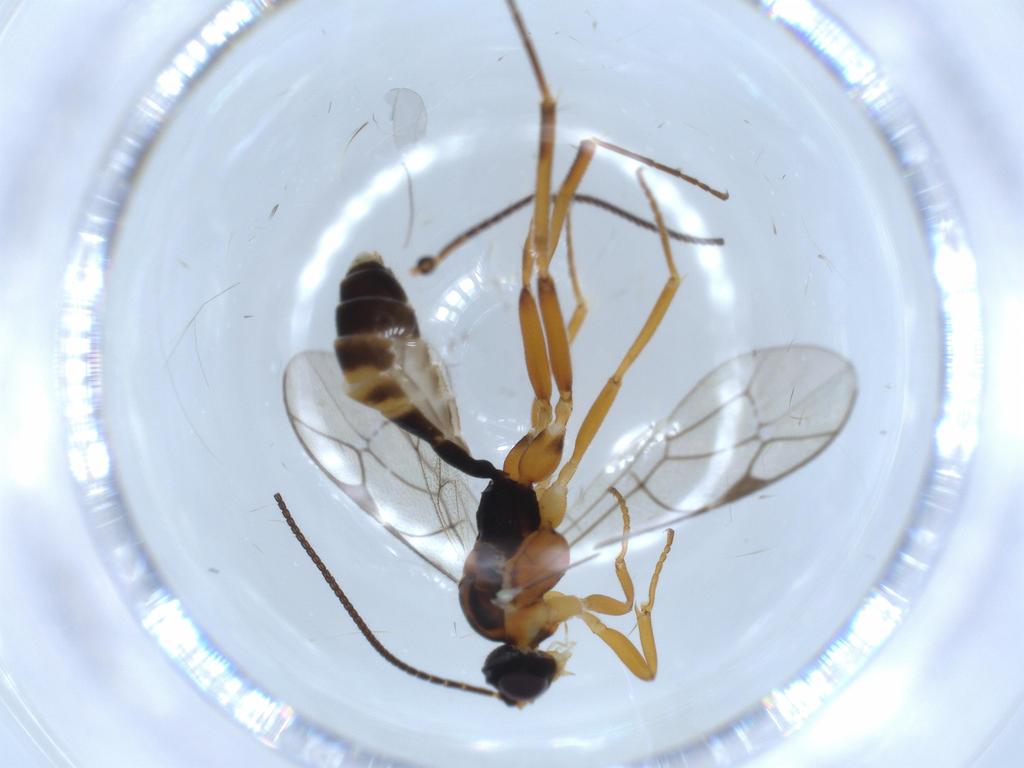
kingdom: Animalia
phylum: Arthropoda
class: Insecta
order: Hymenoptera
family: Ichneumonidae
